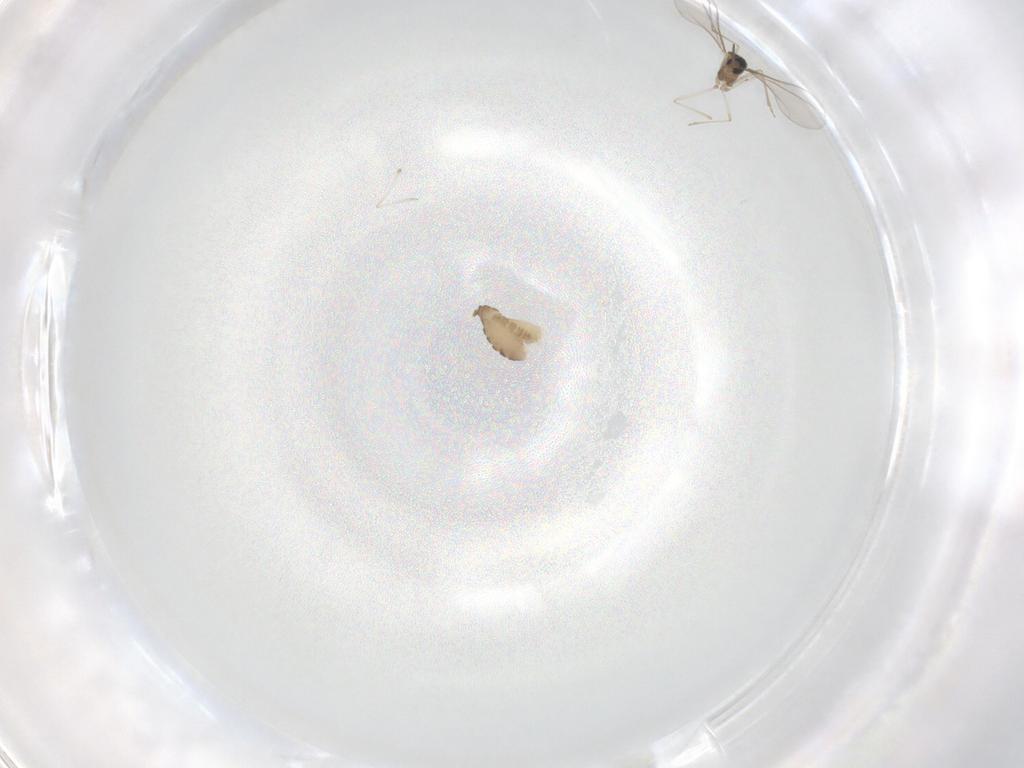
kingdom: Animalia
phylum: Arthropoda
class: Insecta
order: Diptera
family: Cecidomyiidae
